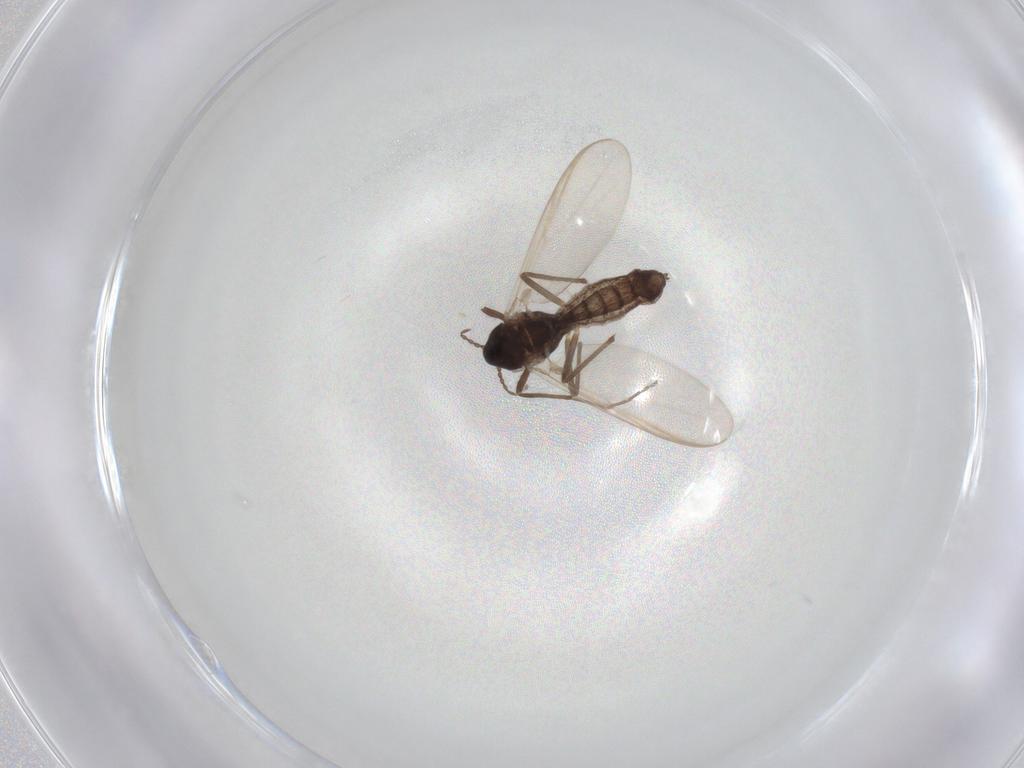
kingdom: Animalia
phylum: Arthropoda
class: Insecta
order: Diptera
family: Chironomidae
